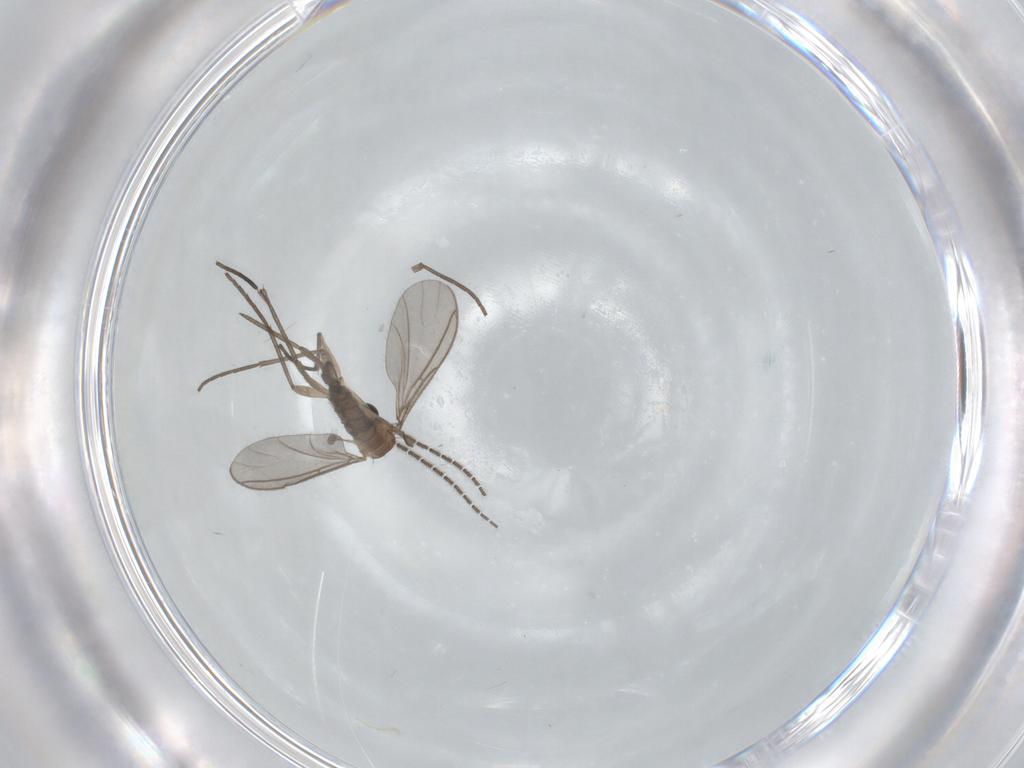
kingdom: Animalia
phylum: Arthropoda
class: Insecta
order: Diptera
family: Sciaridae
